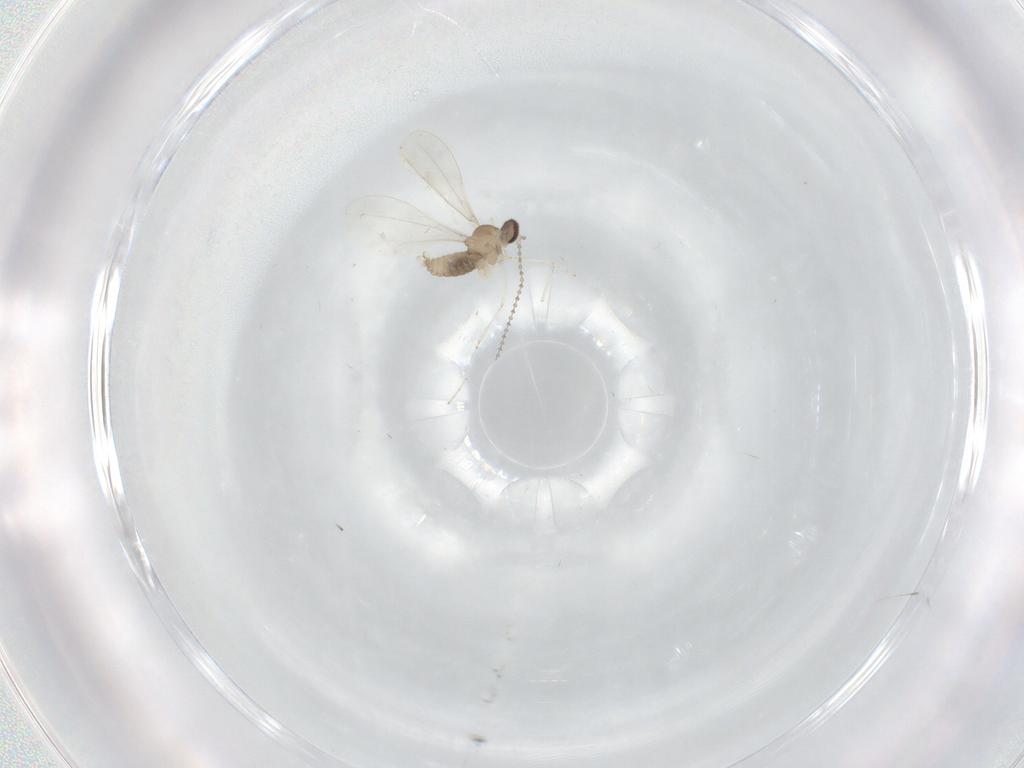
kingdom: Animalia
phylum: Arthropoda
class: Insecta
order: Diptera
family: Cecidomyiidae
